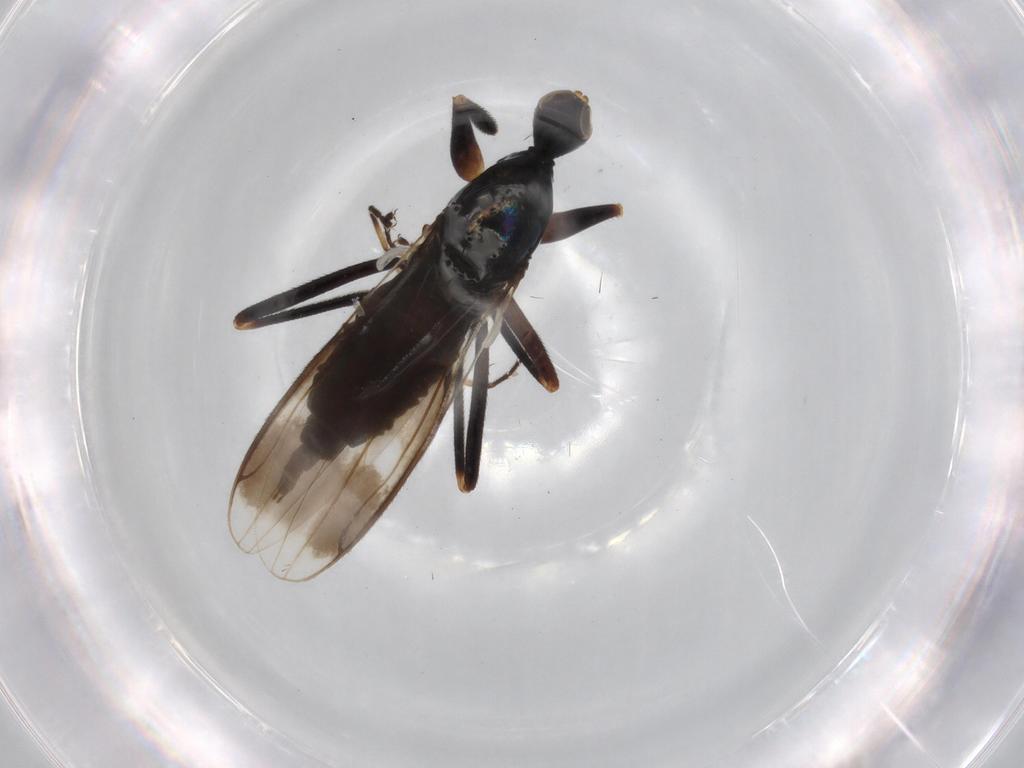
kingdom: Animalia
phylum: Arthropoda
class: Insecta
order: Diptera
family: Hybotidae
